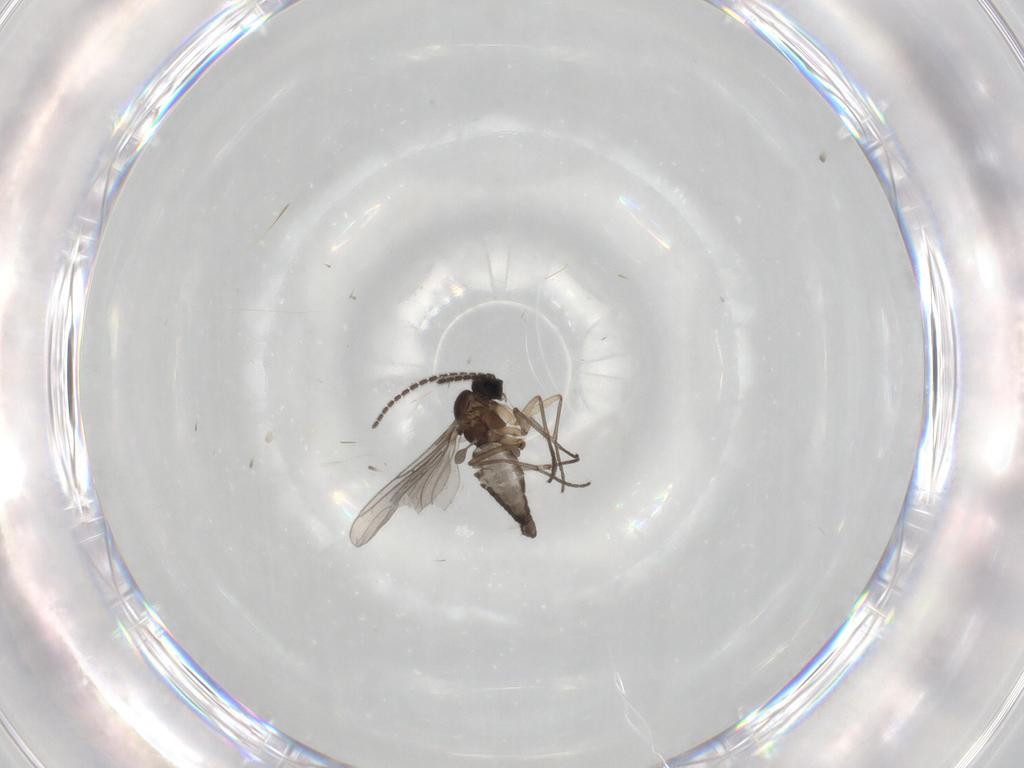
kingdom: Animalia
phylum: Arthropoda
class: Insecta
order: Diptera
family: Sciaridae
